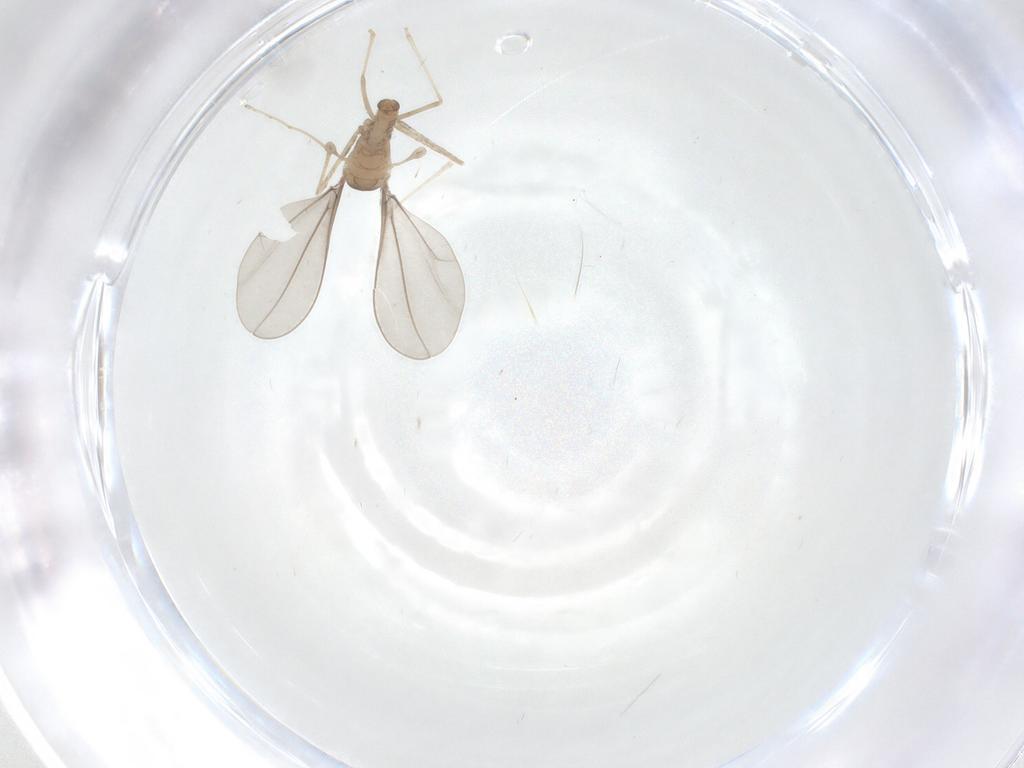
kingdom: Animalia
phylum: Arthropoda
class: Insecta
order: Diptera
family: Cecidomyiidae
